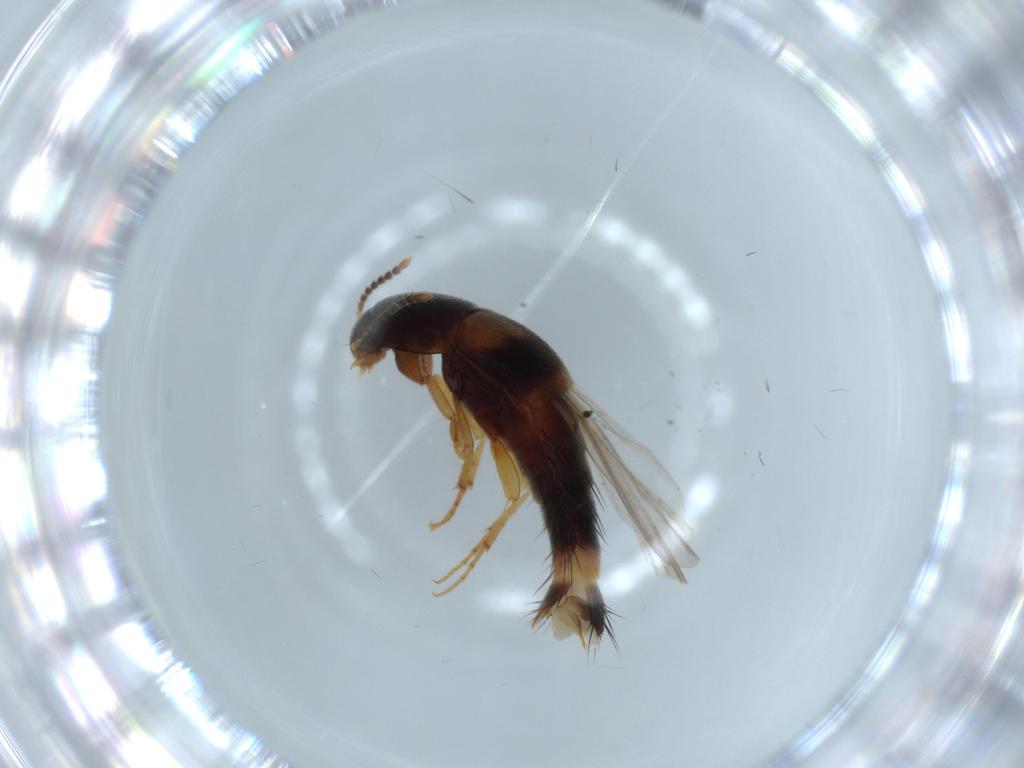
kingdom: Animalia
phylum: Arthropoda
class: Insecta
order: Coleoptera
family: Staphylinidae
